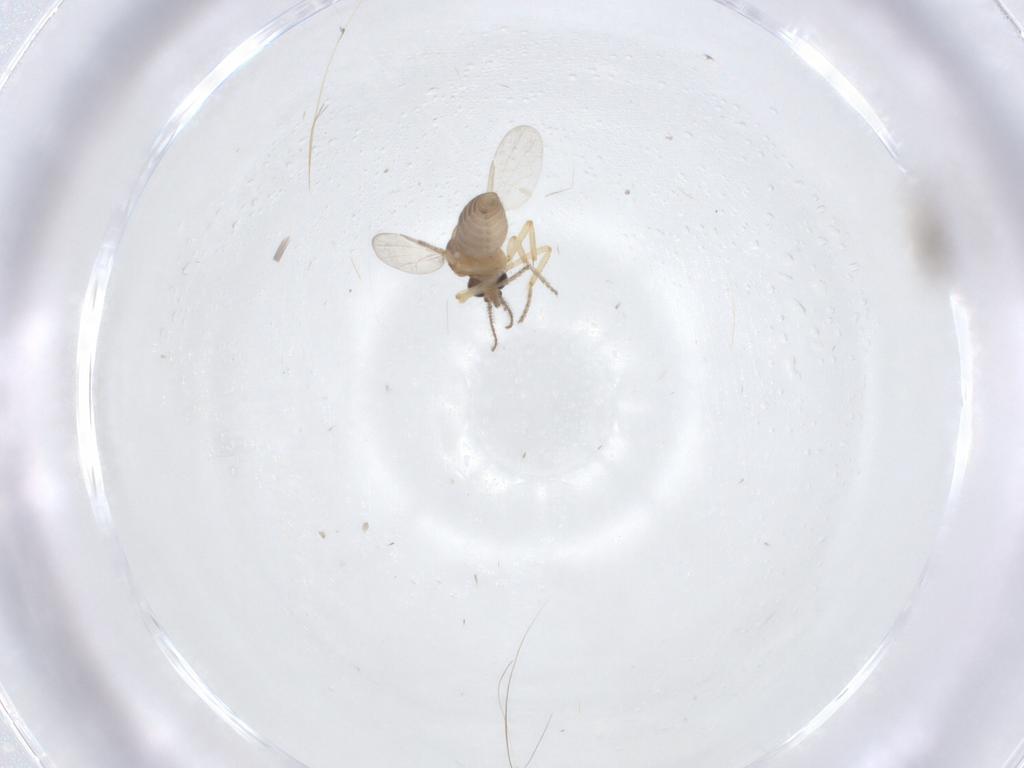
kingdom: Animalia
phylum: Arthropoda
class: Insecta
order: Diptera
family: Ceratopogonidae
